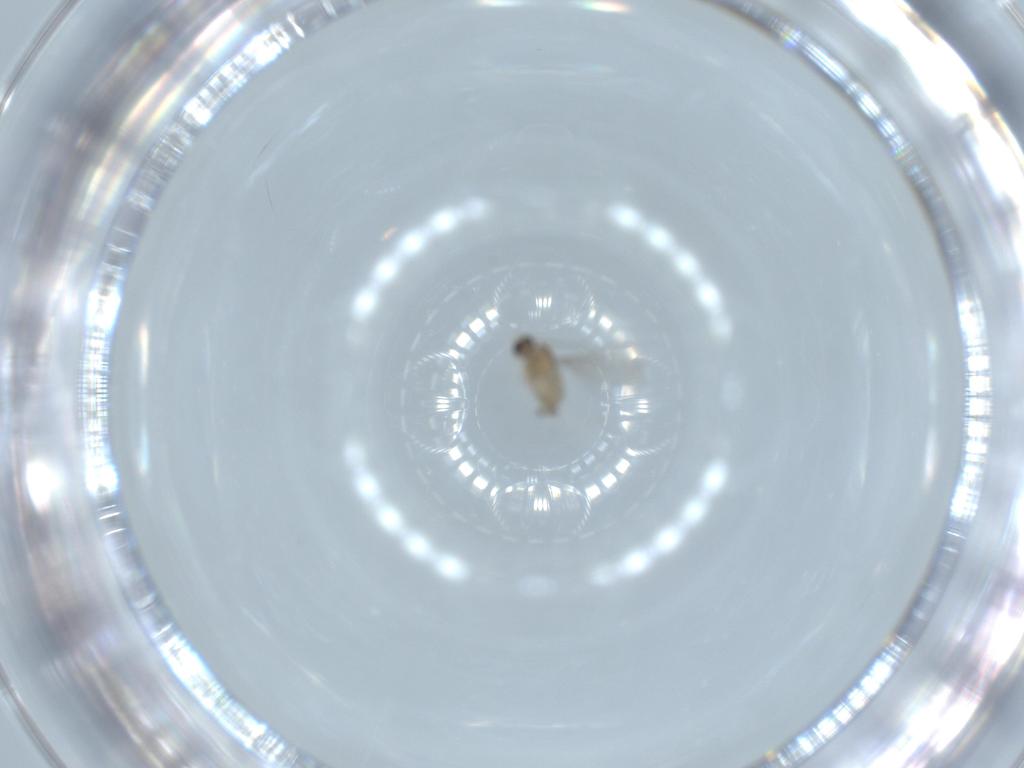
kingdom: Animalia
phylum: Arthropoda
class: Insecta
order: Diptera
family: Cecidomyiidae
